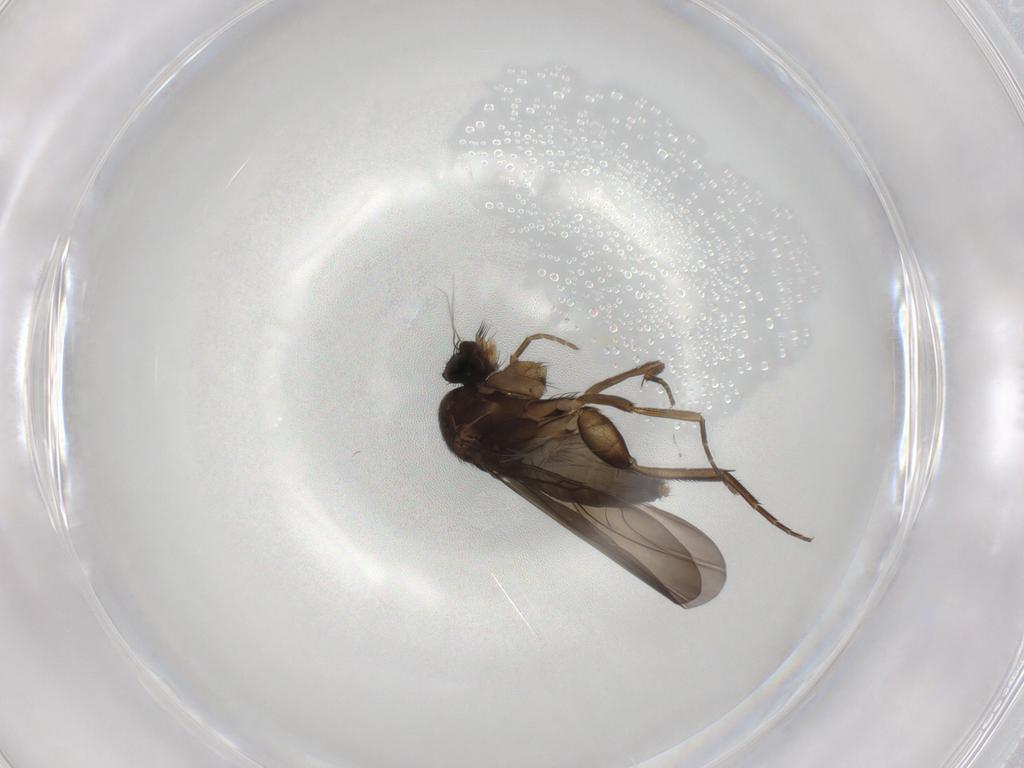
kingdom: Animalia
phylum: Arthropoda
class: Insecta
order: Diptera
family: Phoridae
